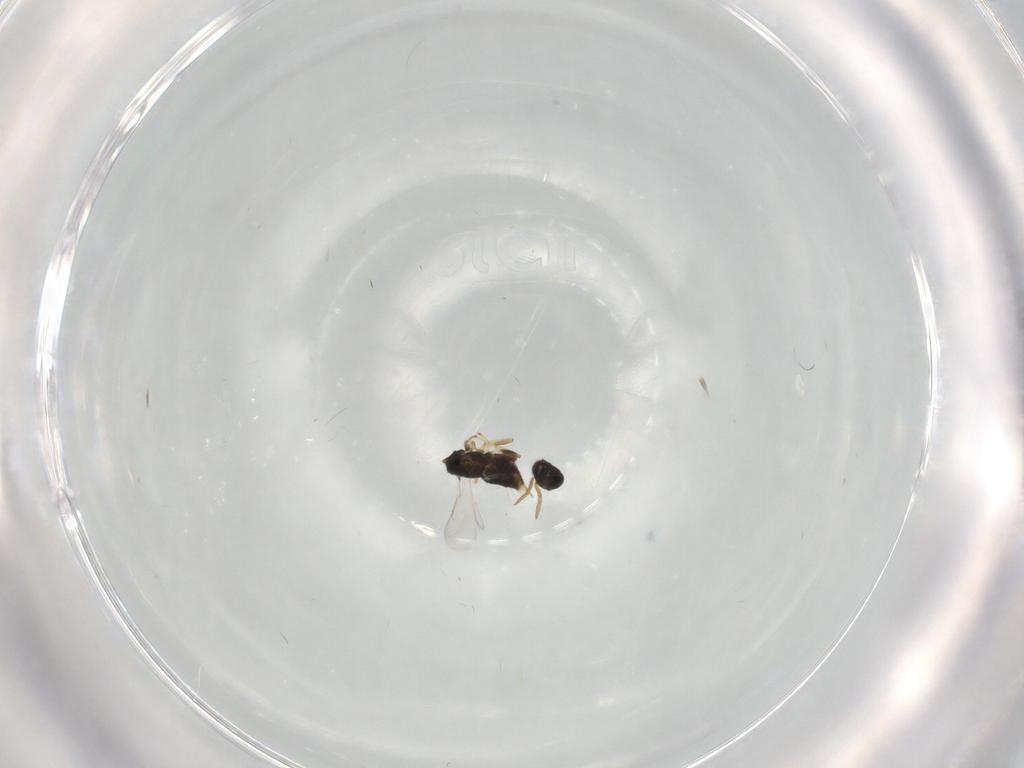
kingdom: Animalia
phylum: Arthropoda
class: Insecta
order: Hymenoptera
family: Aphelinidae
